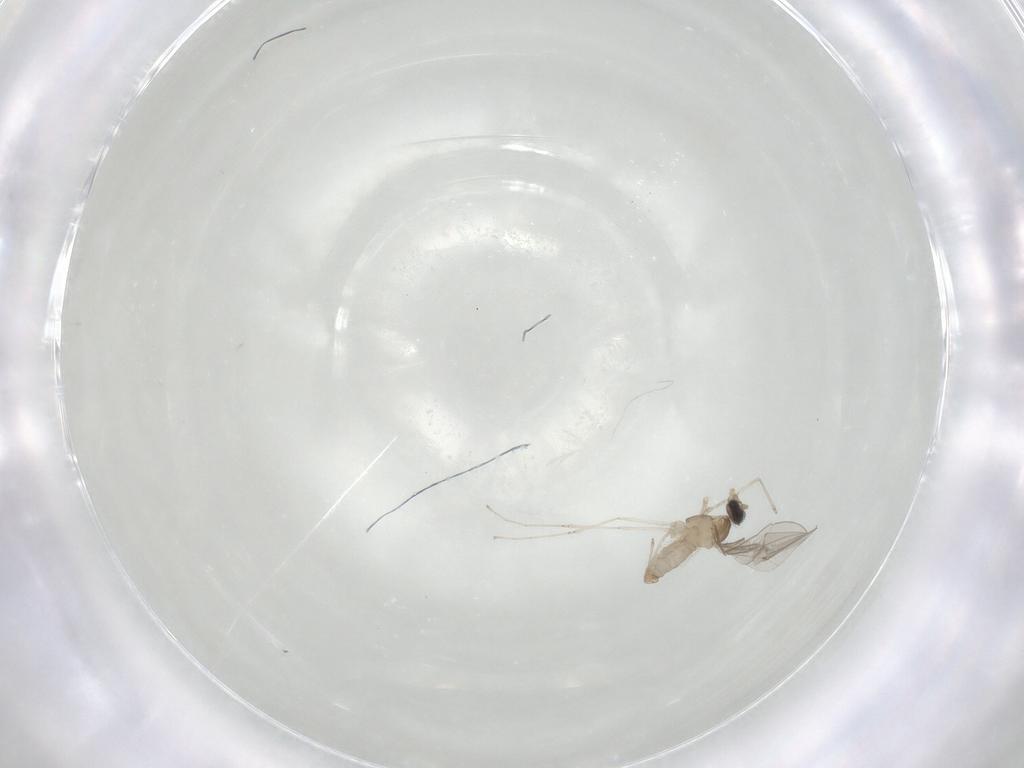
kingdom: Animalia
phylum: Arthropoda
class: Insecta
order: Diptera
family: Cecidomyiidae
